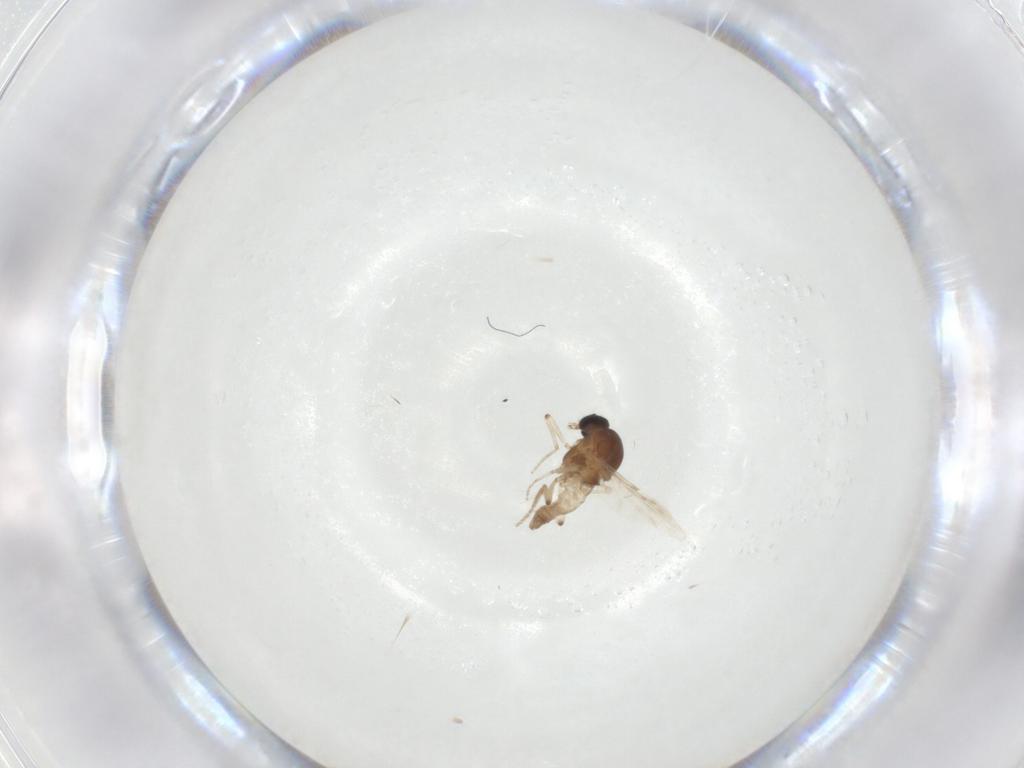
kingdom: Animalia
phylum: Arthropoda
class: Insecta
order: Diptera
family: Ceratopogonidae
